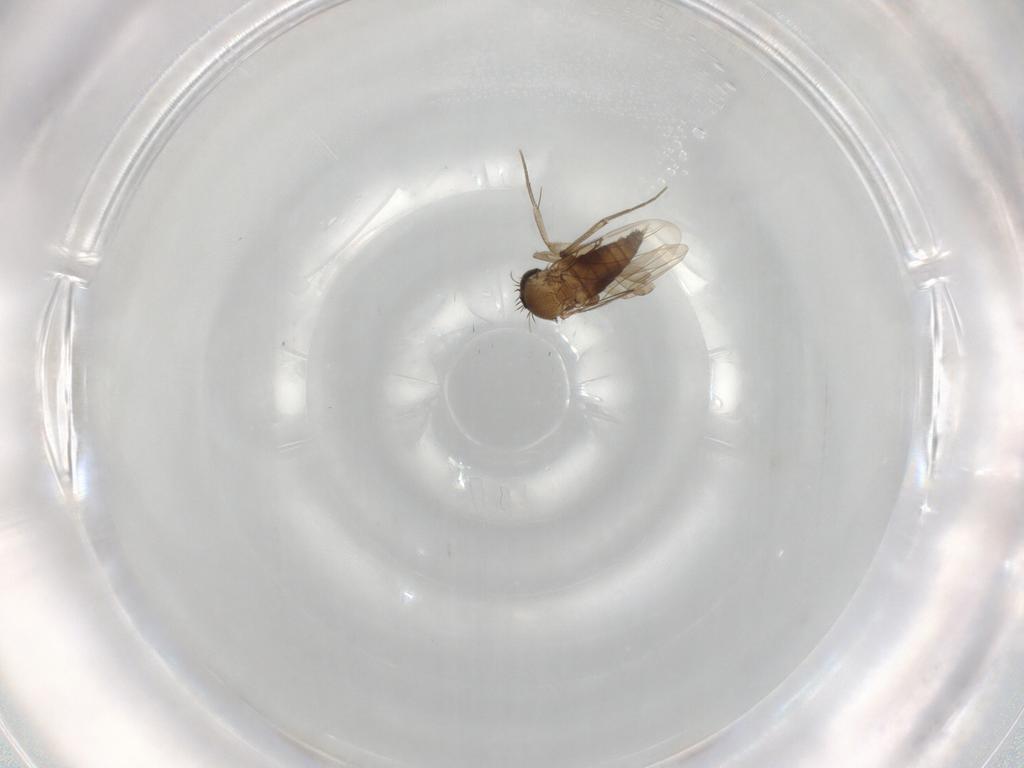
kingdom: Animalia
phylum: Arthropoda
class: Insecta
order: Diptera
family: Phoridae
